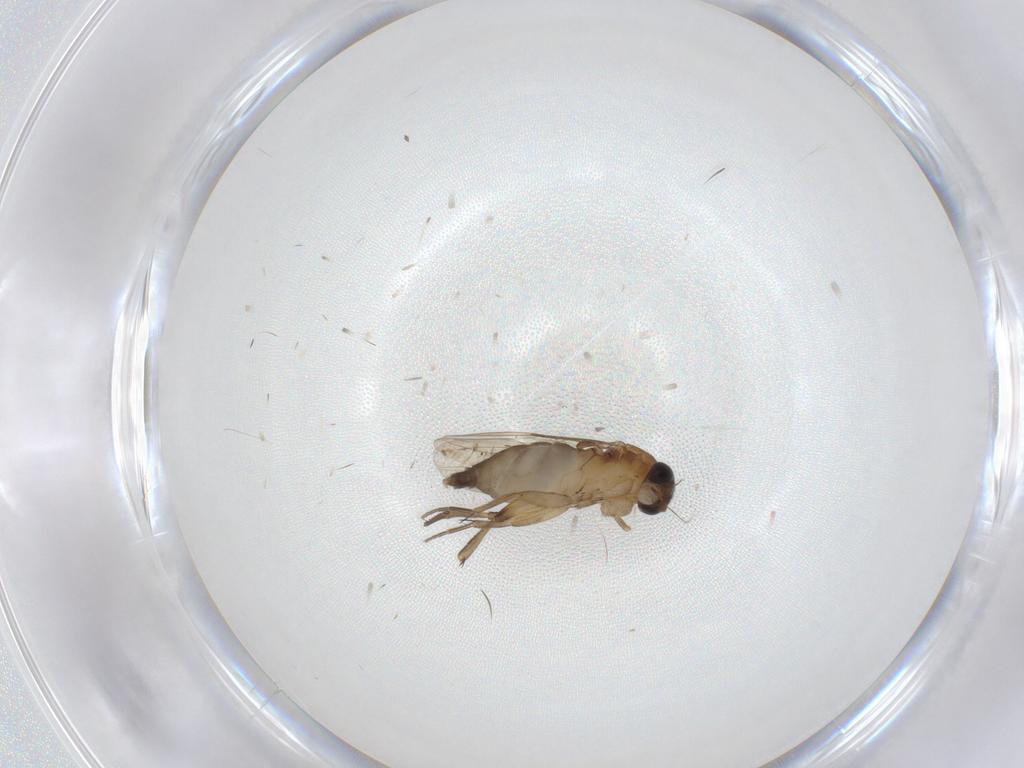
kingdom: Animalia
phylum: Arthropoda
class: Insecta
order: Diptera
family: Phoridae
